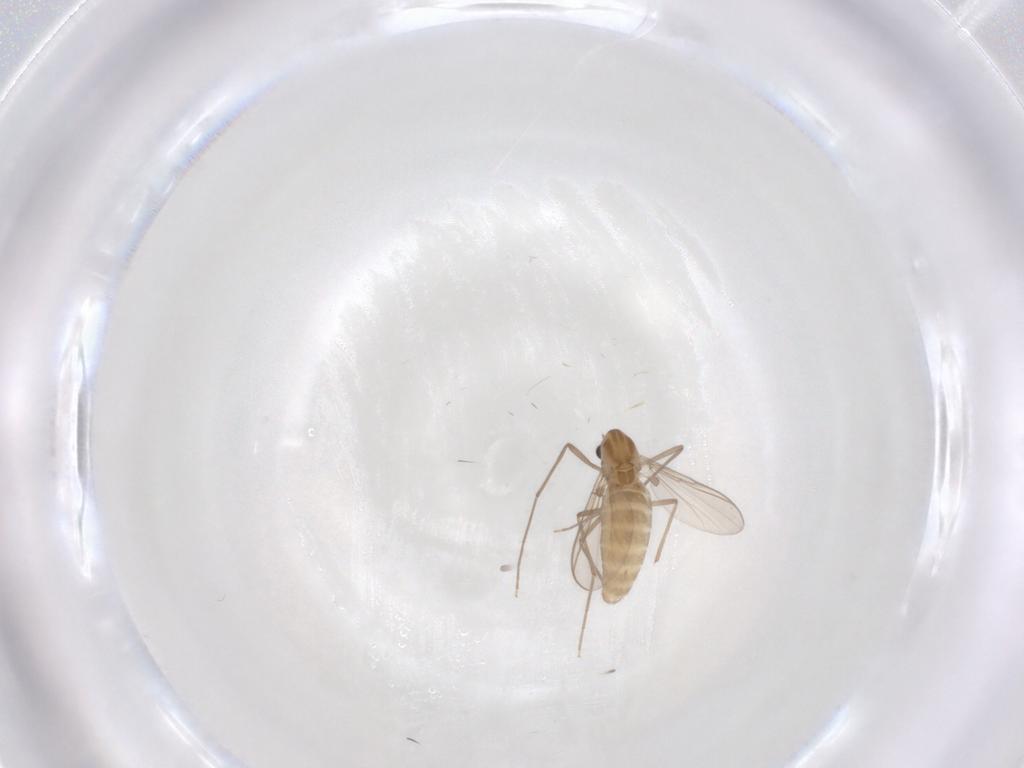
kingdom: Animalia
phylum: Arthropoda
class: Insecta
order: Diptera
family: Chironomidae
